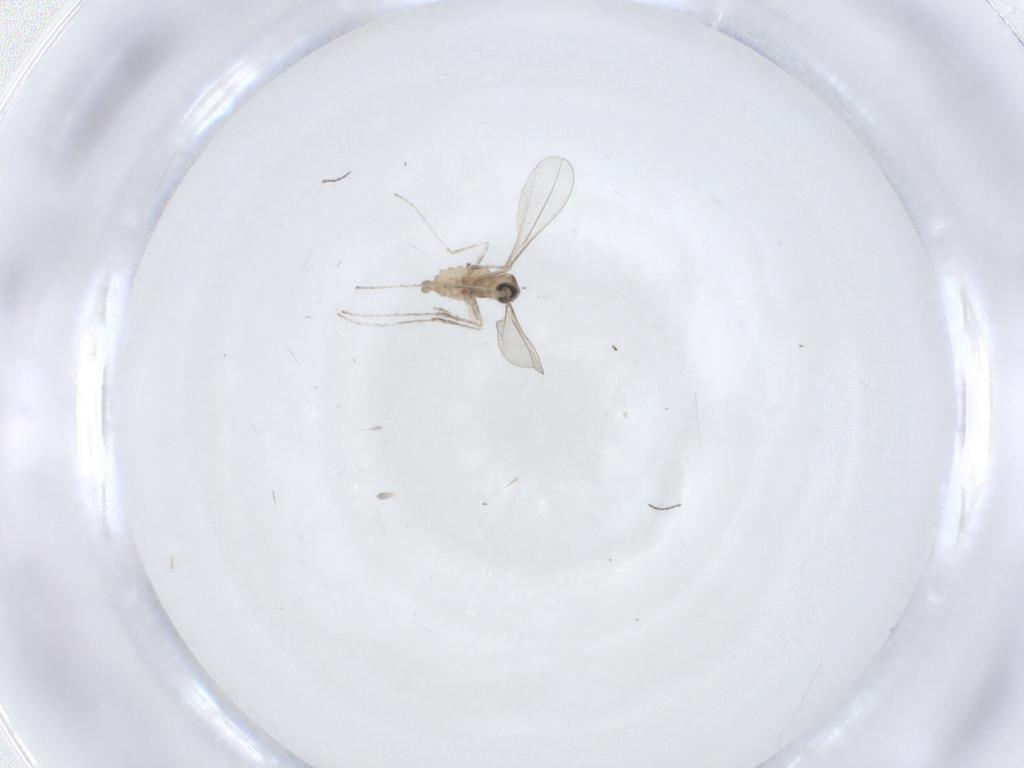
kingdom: Animalia
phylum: Arthropoda
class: Insecta
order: Diptera
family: Cecidomyiidae
